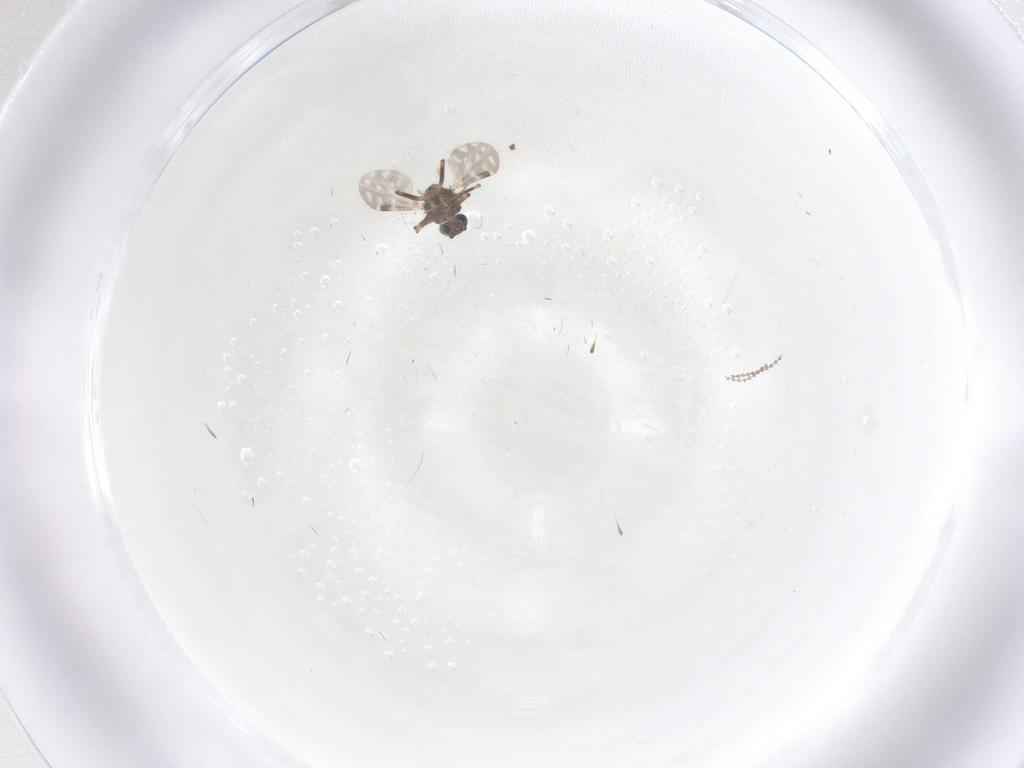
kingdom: Animalia
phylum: Arthropoda
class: Insecta
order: Diptera
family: Ceratopogonidae
